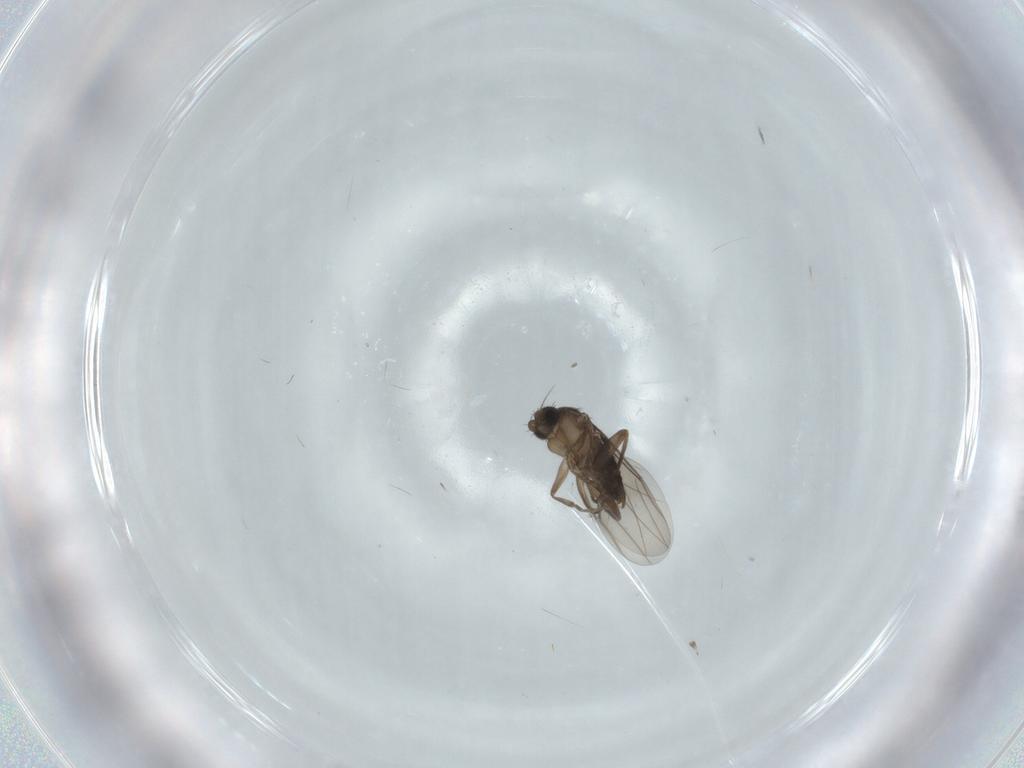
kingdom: Animalia
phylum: Arthropoda
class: Insecta
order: Diptera
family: Phoridae
